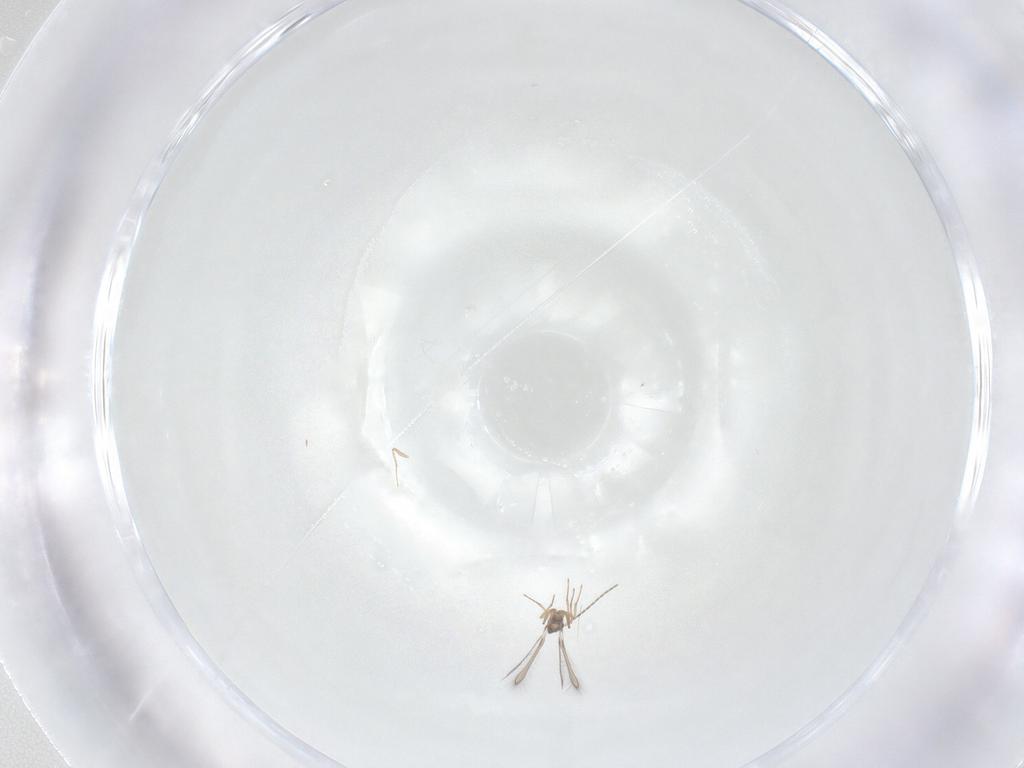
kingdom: Animalia
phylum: Arthropoda
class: Insecta
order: Hymenoptera
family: Mymaridae
